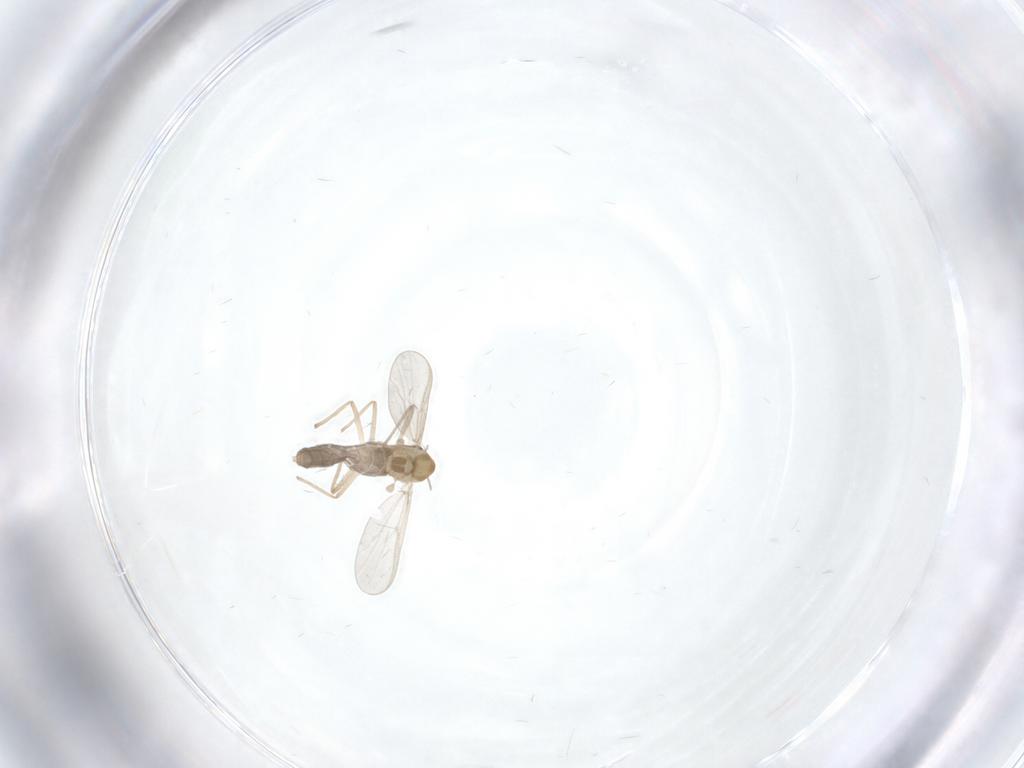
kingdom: Animalia
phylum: Arthropoda
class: Insecta
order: Diptera
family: Chironomidae
